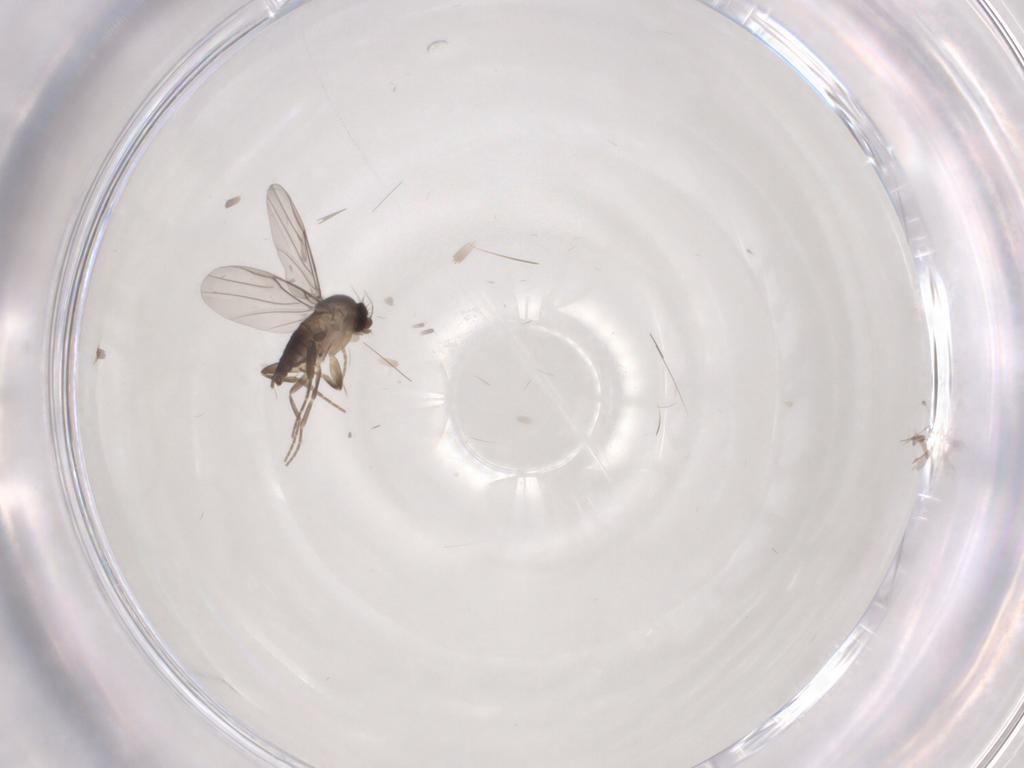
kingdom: Animalia
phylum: Arthropoda
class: Insecta
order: Diptera
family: Phoridae
